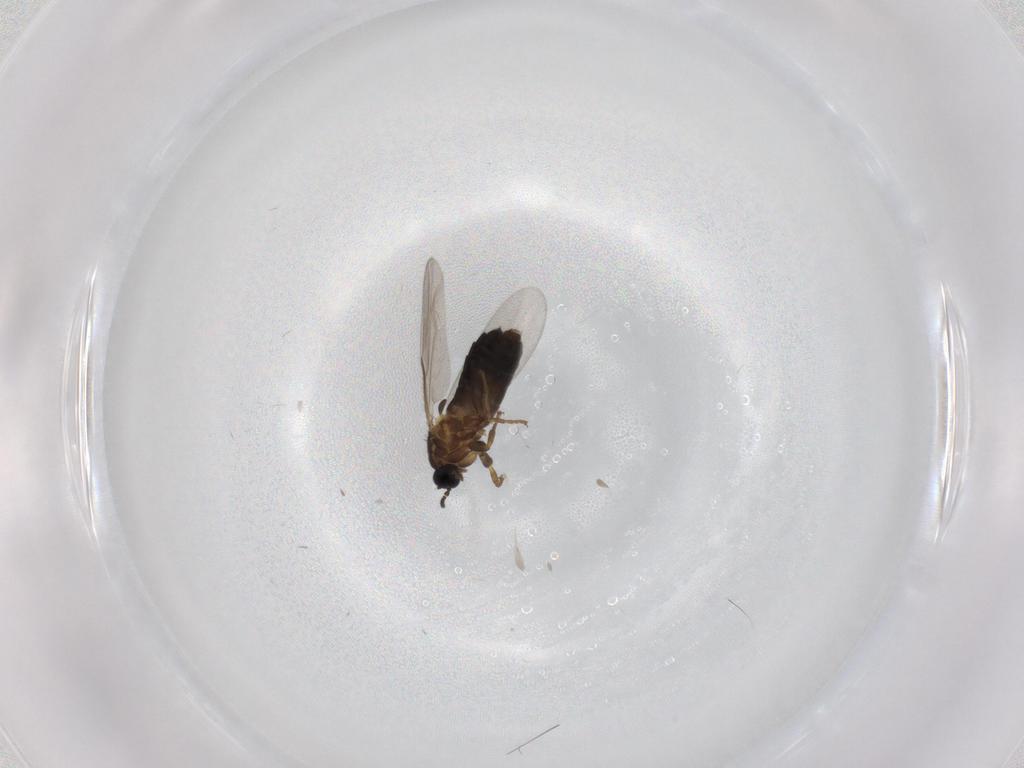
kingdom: Animalia
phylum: Arthropoda
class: Insecta
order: Diptera
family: Scatopsidae
